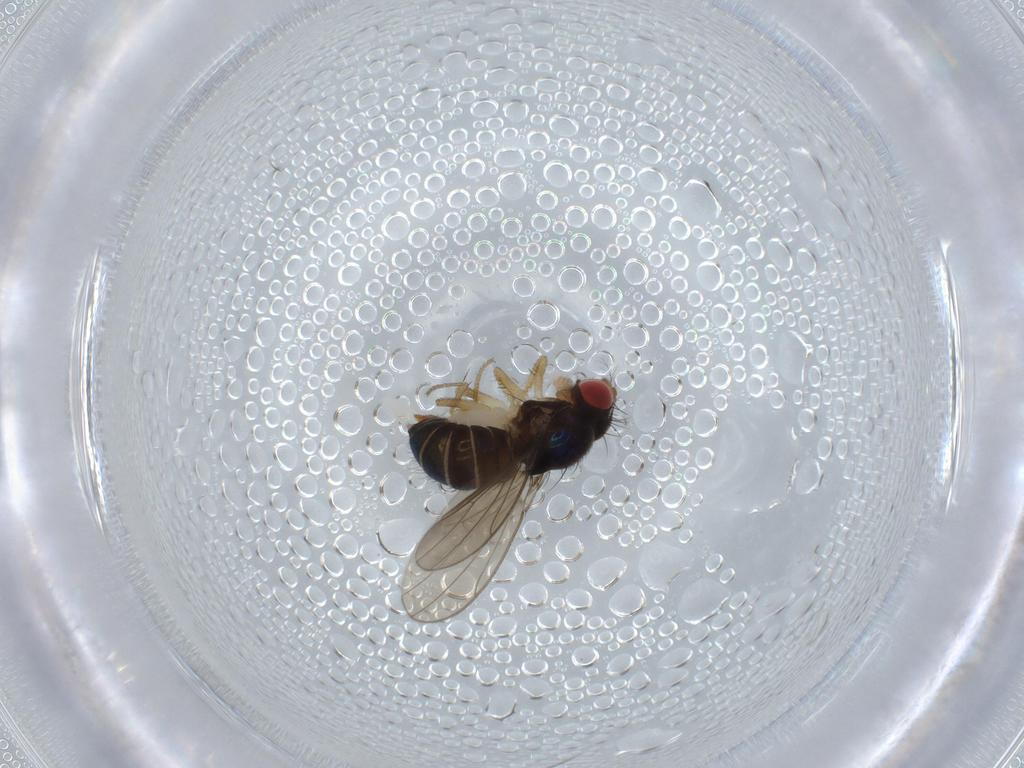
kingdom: Animalia
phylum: Arthropoda
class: Insecta
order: Diptera
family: Drosophilidae
